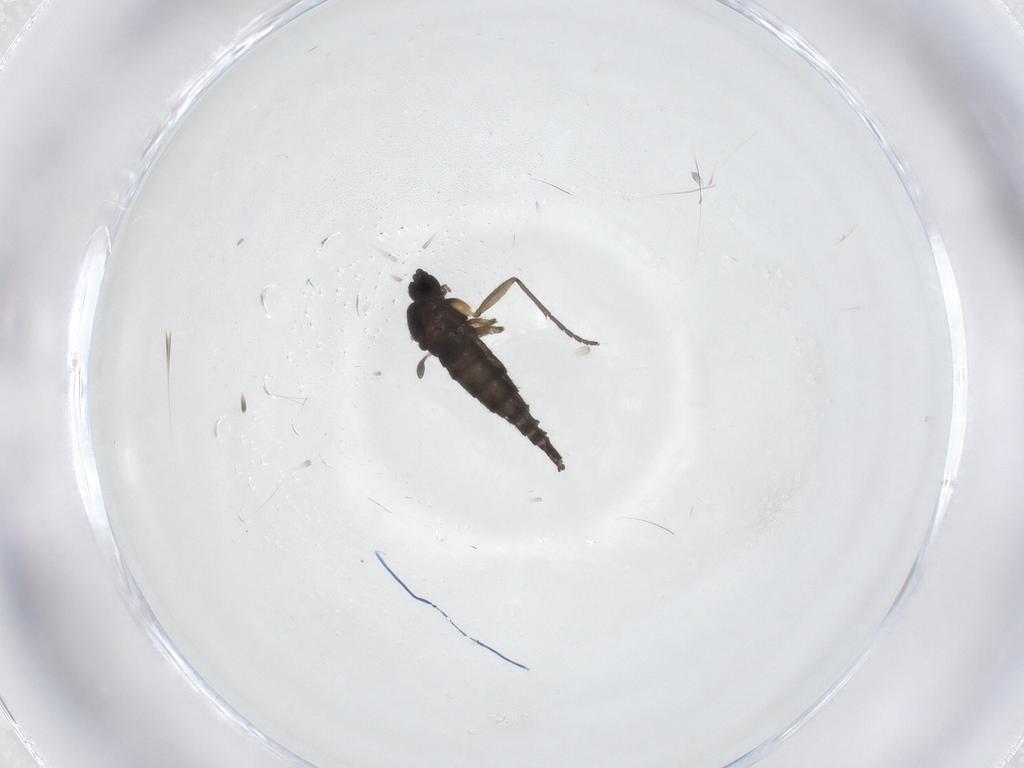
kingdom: Animalia
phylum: Arthropoda
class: Insecta
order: Diptera
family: Sciaridae
